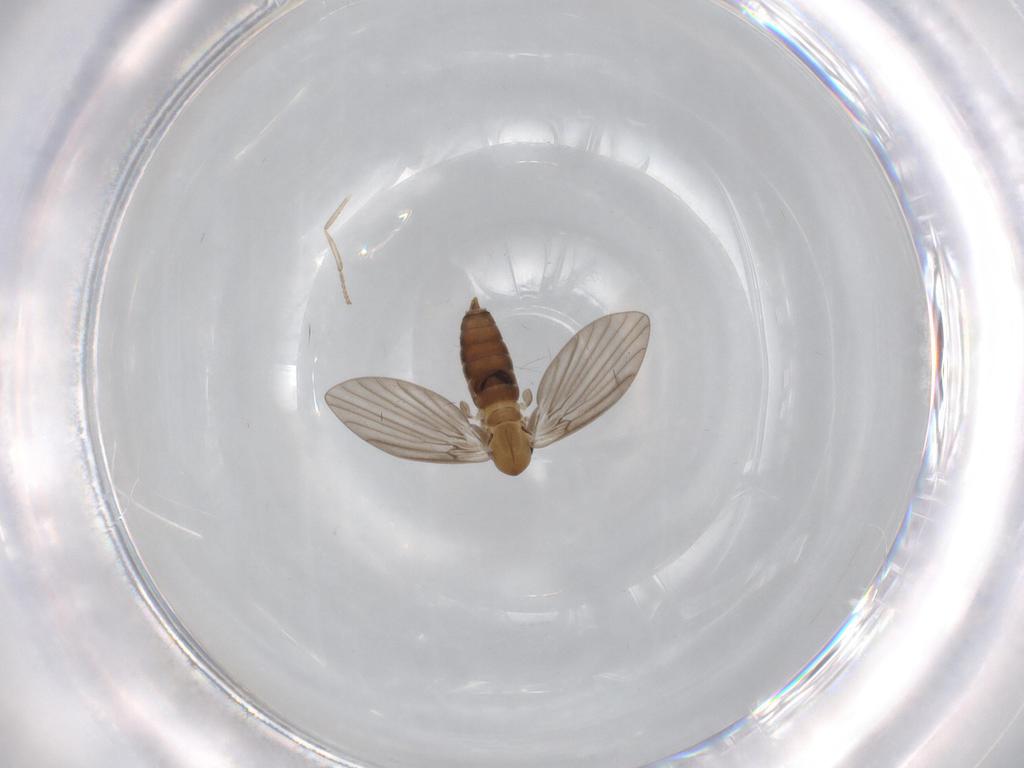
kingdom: Animalia
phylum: Arthropoda
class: Insecta
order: Diptera
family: Psychodidae
